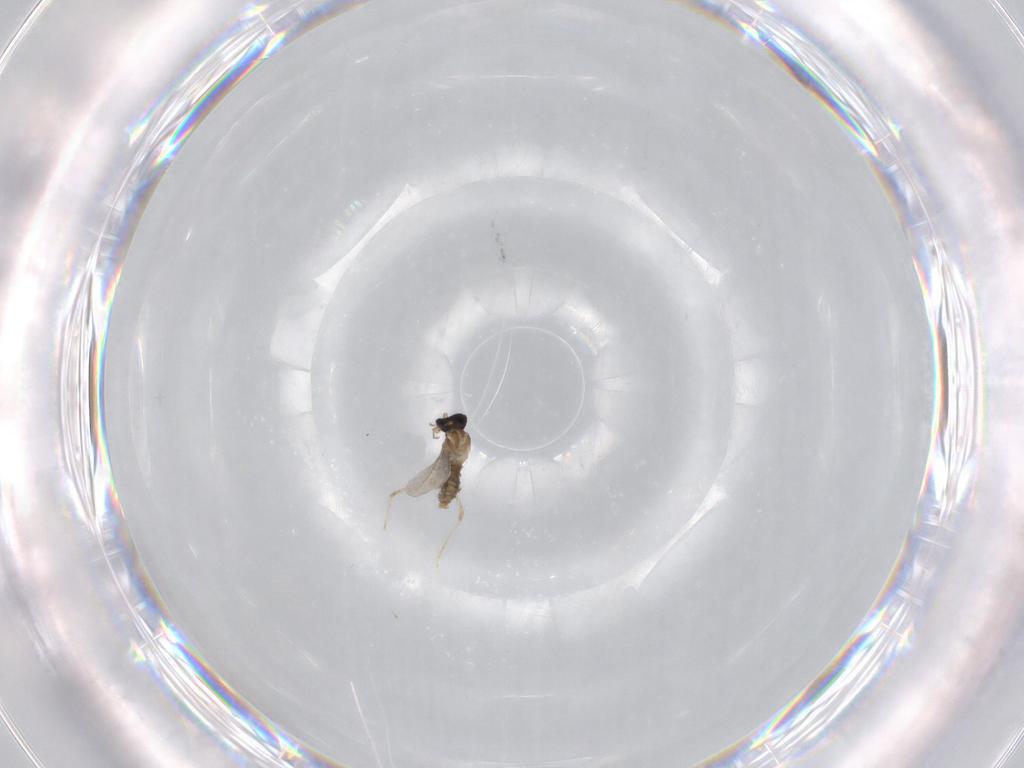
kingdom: Animalia
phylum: Arthropoda
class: Insecta
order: Diptera
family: Cecidomyiidae
